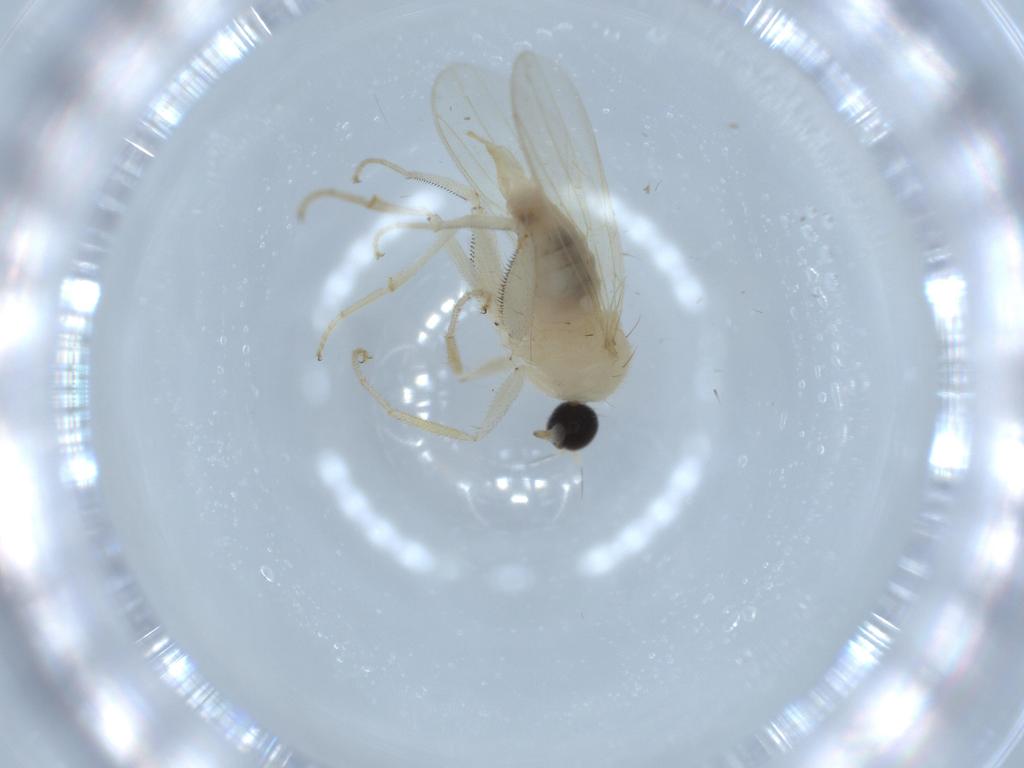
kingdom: Animalia
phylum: Arthropoda
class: Insecta
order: Diptera
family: Hybotidae
